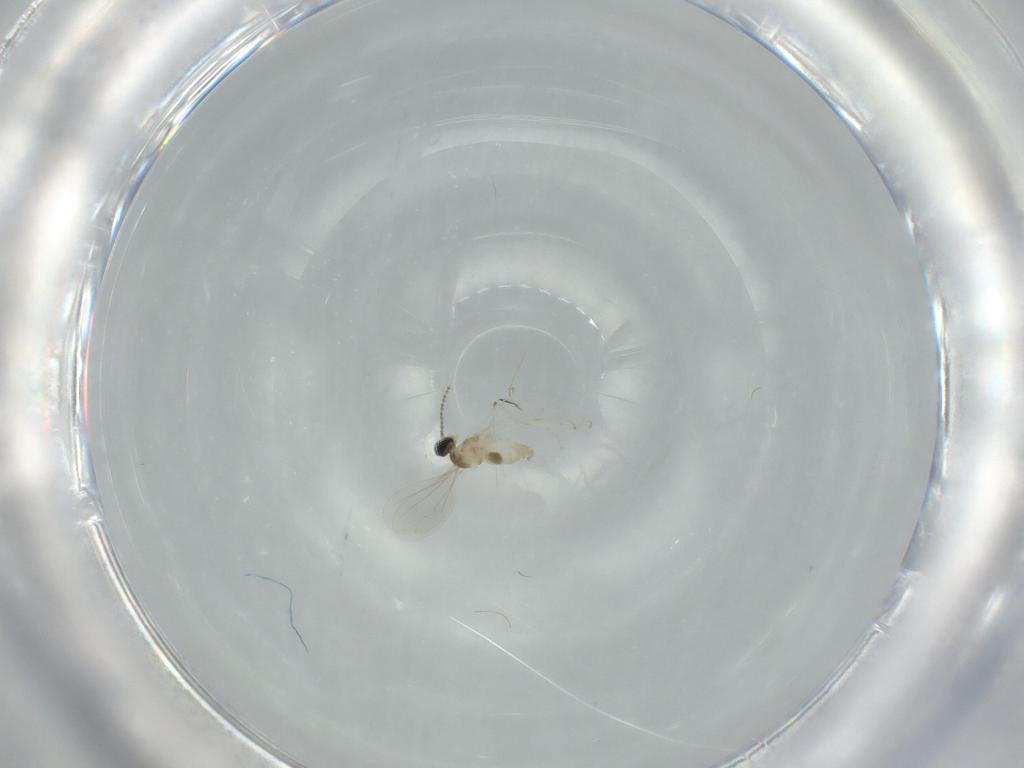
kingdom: Animalia
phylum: Arthropoda
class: Insecta
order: Diptera
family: Cecidomyiidae
